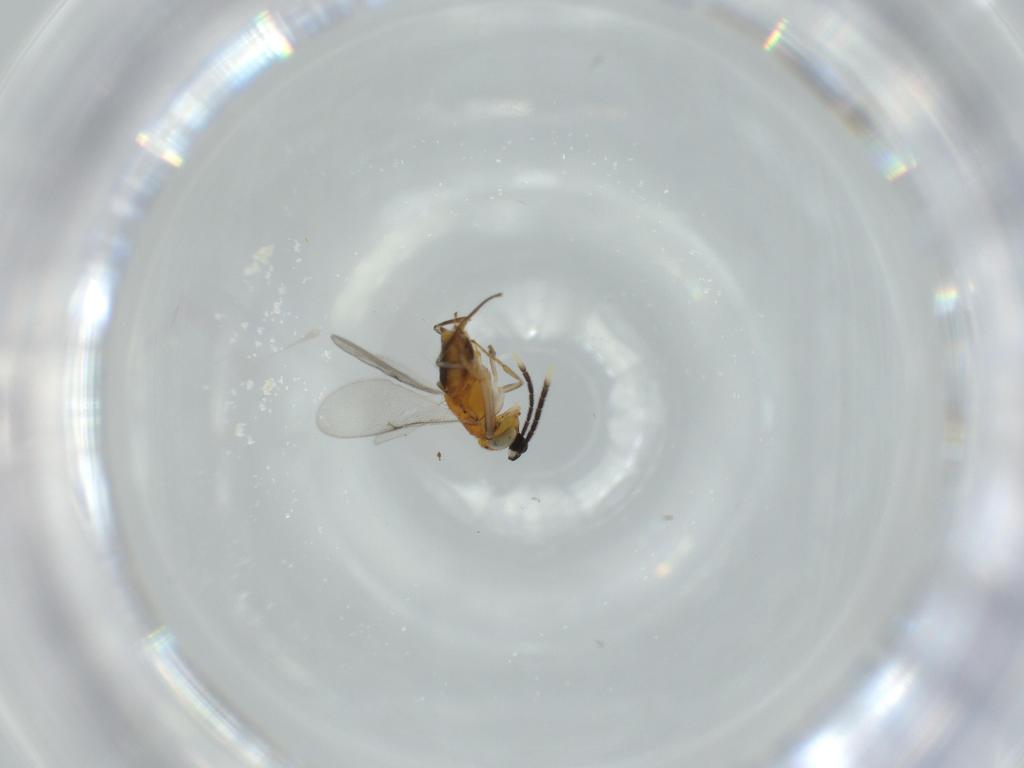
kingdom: Animalia
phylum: Arthropoda
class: Insecta
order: Hymenoptera
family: Encyrtidae
